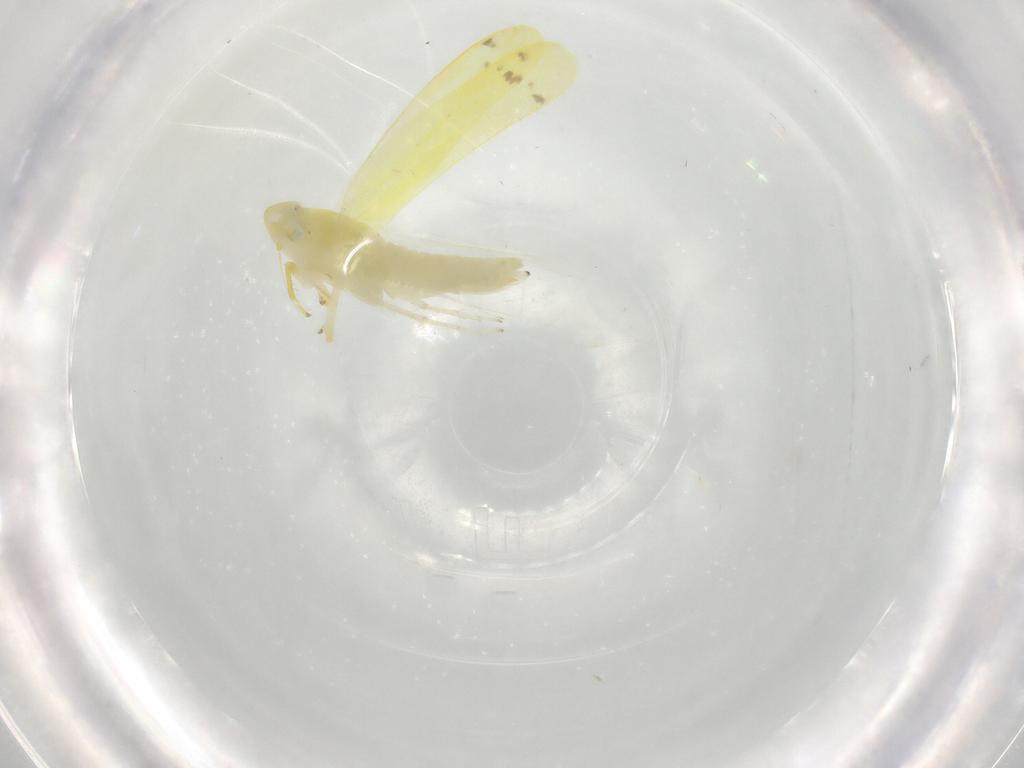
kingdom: Animalia
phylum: Arthropoda
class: Insecta
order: Hemiptera
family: Cicadellidae
